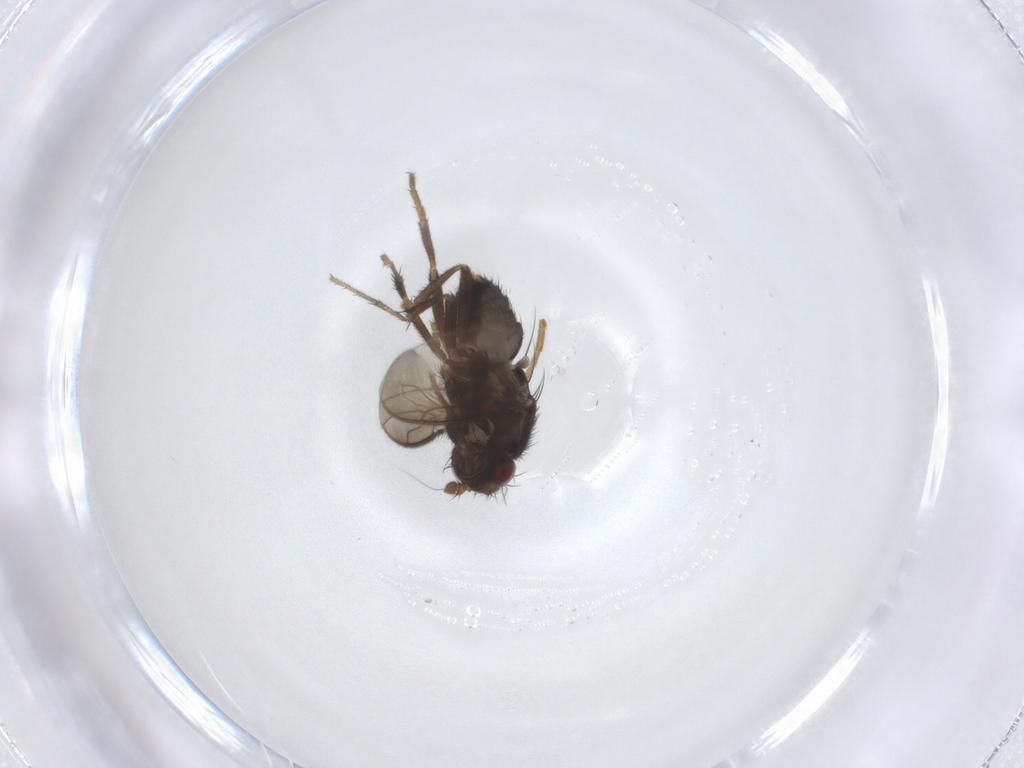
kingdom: Animalia
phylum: Arthropoda
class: Insecta
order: Diptera
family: Sphaeroceridae
